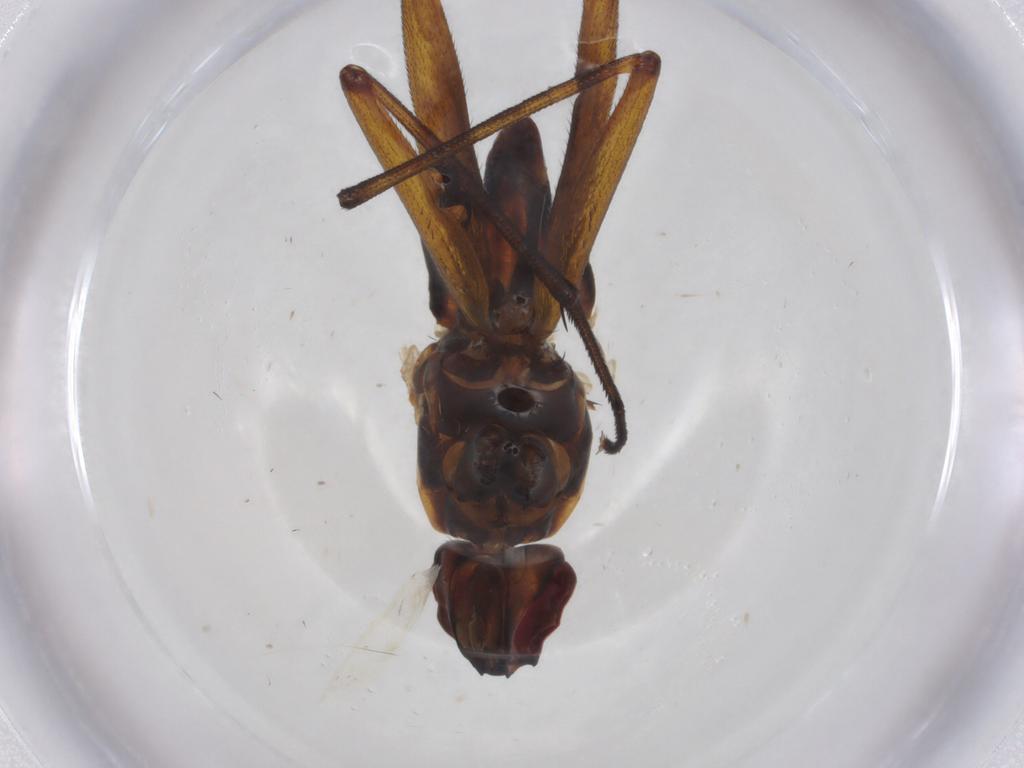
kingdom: Animalia
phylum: Arthropoda
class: Insecta
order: Diptera
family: Neriidae
